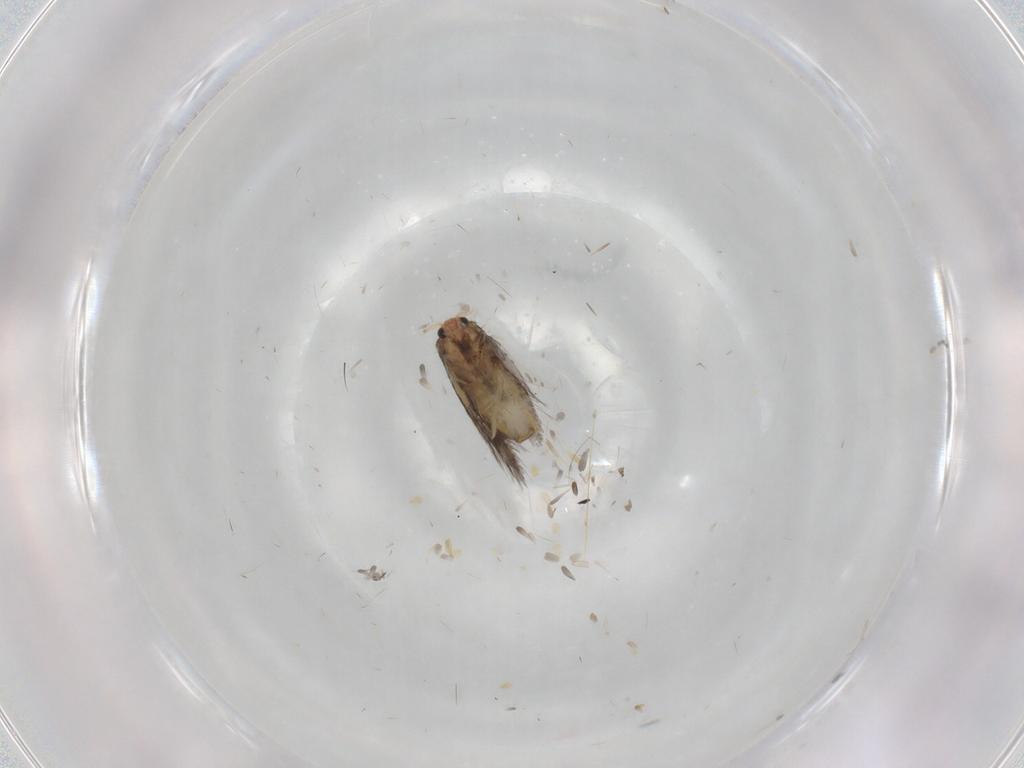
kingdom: Animalia
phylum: Arthropoda
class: Insecta
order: Lepidoptera
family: Nepticulidae
